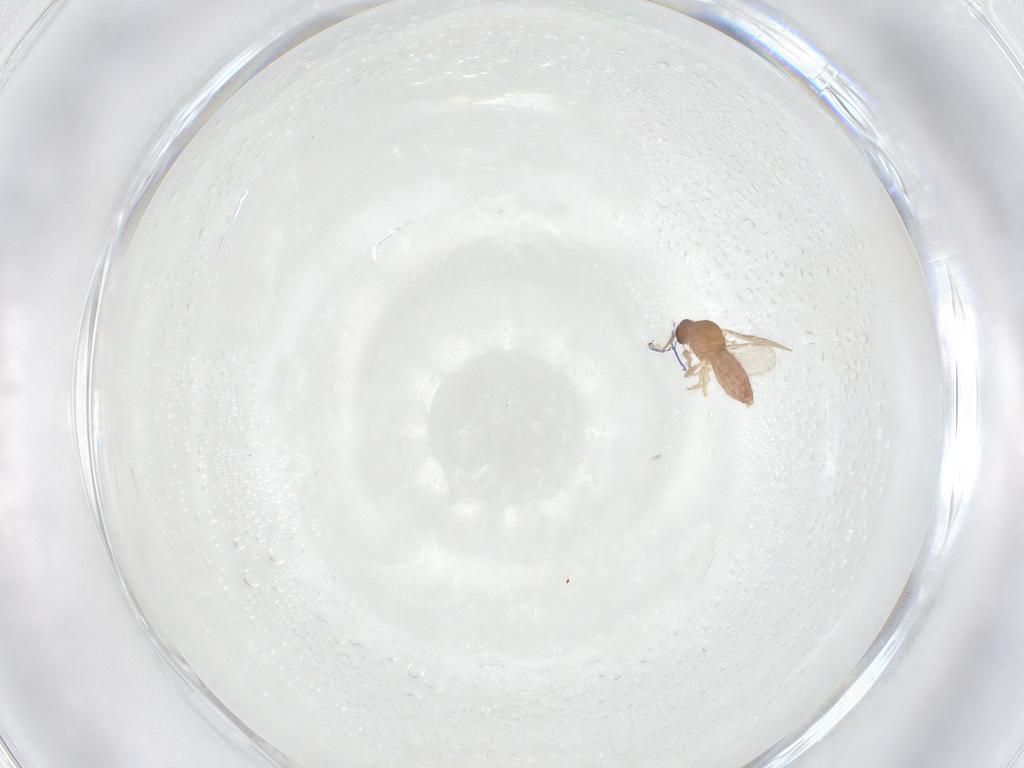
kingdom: Animalia
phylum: Arthropoda
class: Insecta
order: Diptera
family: Ceratopogonidae
